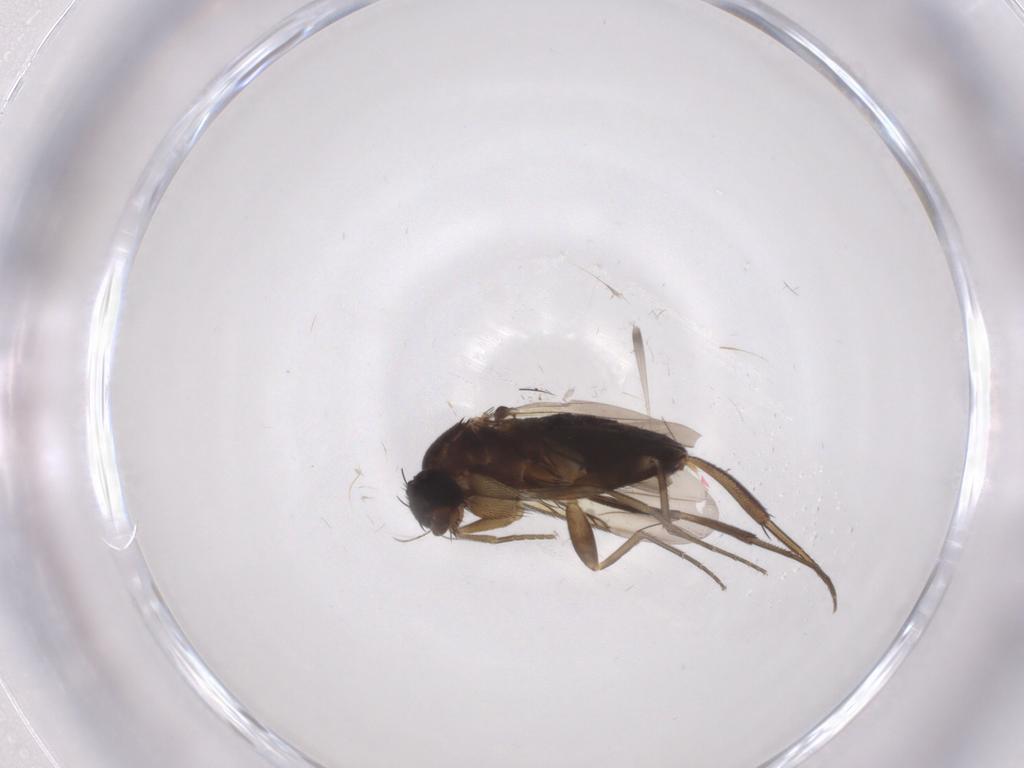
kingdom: Animalia
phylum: Arthropoda
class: Insecta
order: Diptera
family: Phoridae
